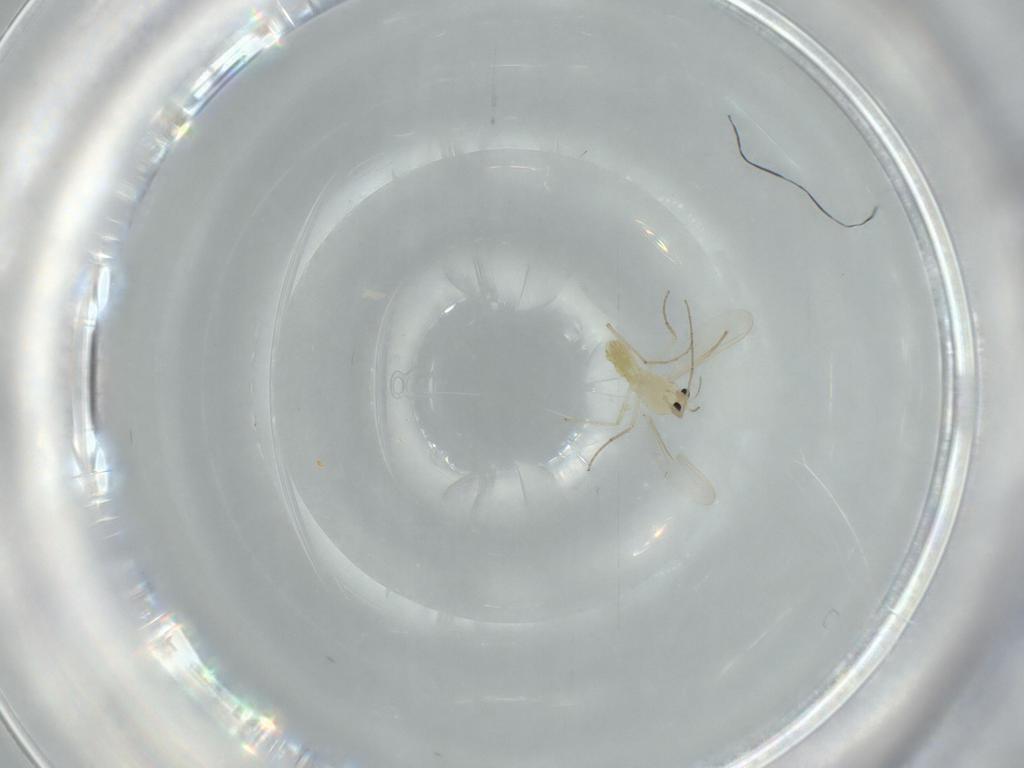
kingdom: Animalia
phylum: Arthropoda
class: Insecta
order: Diptera
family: Chironomidae
